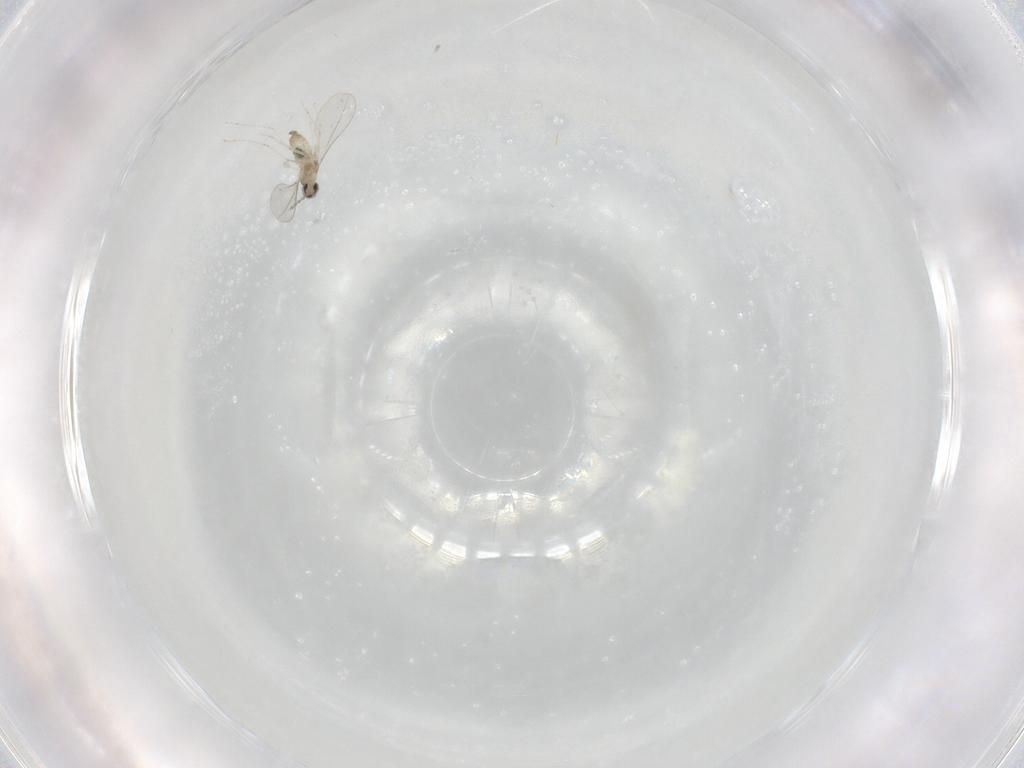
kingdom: Animalia
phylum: Arthropoda
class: Insecta
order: Diptera
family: Cecidomyiidae
